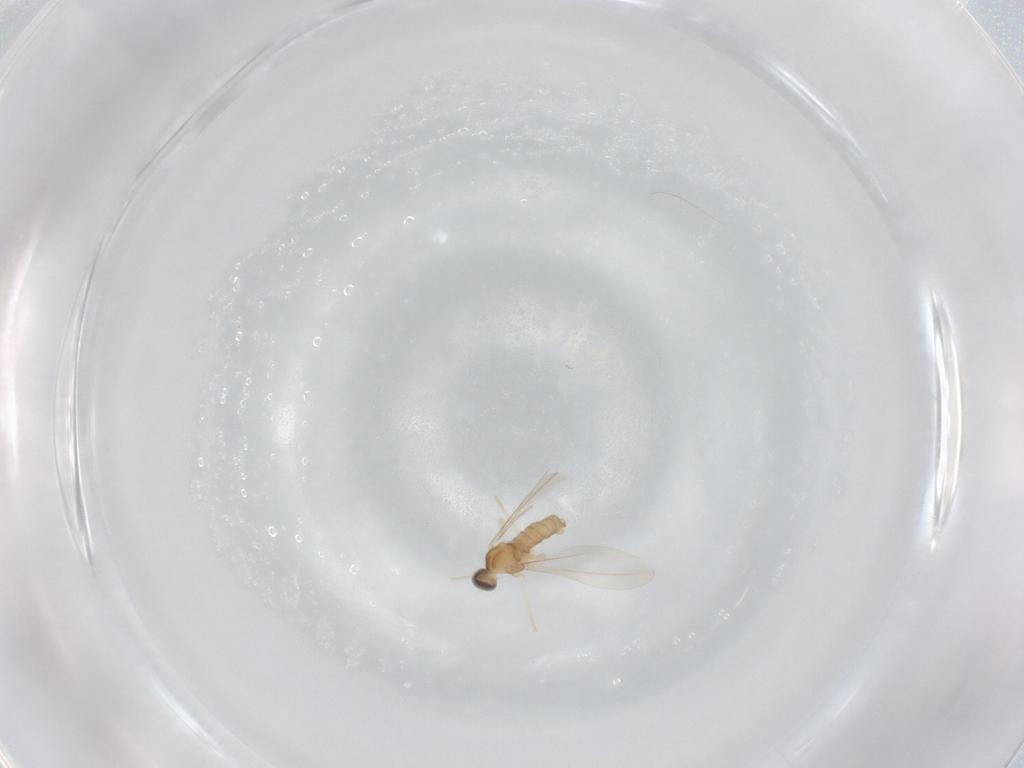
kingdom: Animalia
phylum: Arthropoda
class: Insecta
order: Diptera
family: Cecidomyiidae
